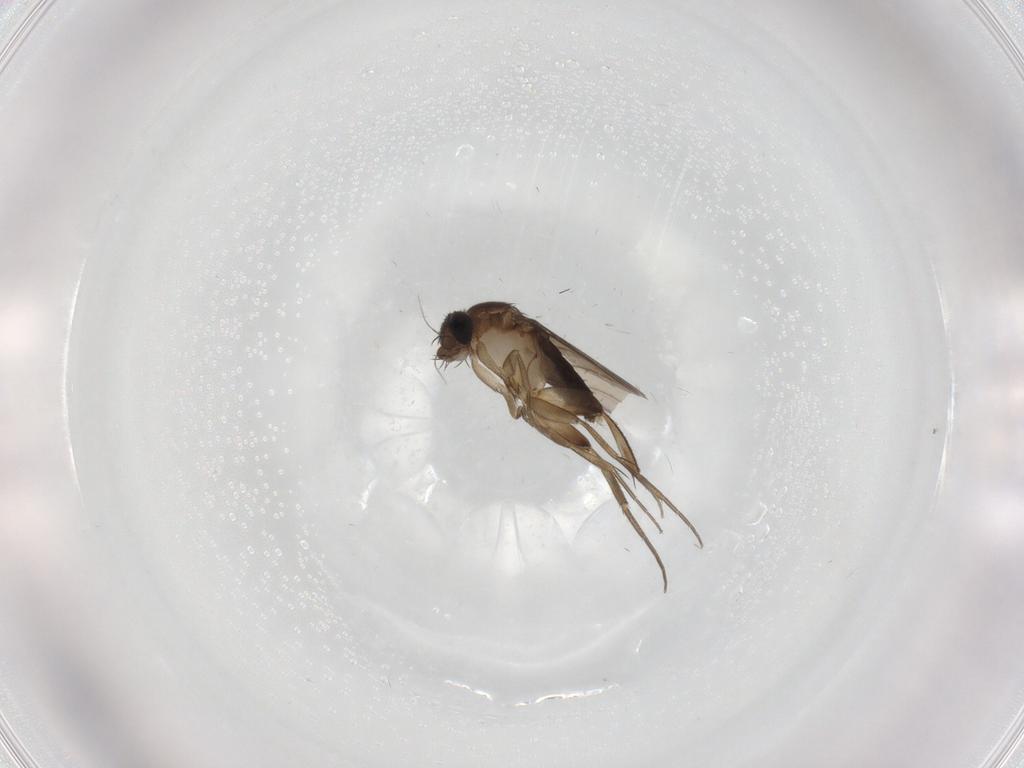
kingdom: Animalia
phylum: Arthropoda
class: Insecta
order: Diptera
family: Phoridae
